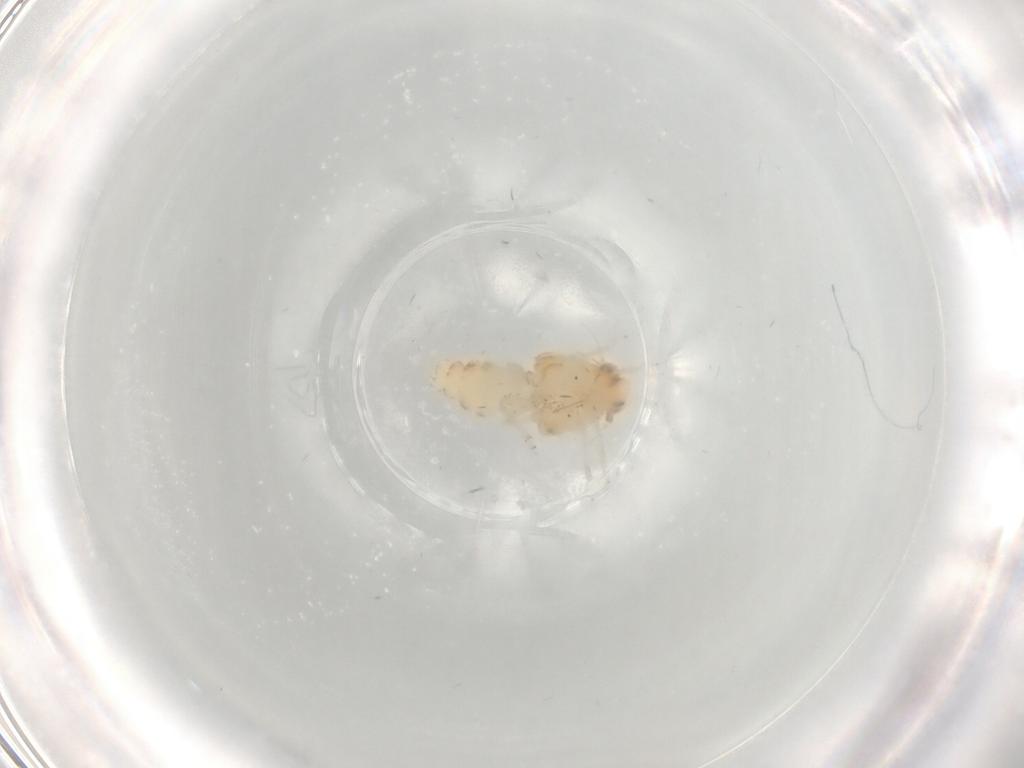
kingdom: Animalia
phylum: Arthropoda
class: Insecta
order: Hemiptera
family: Nogodinidae
